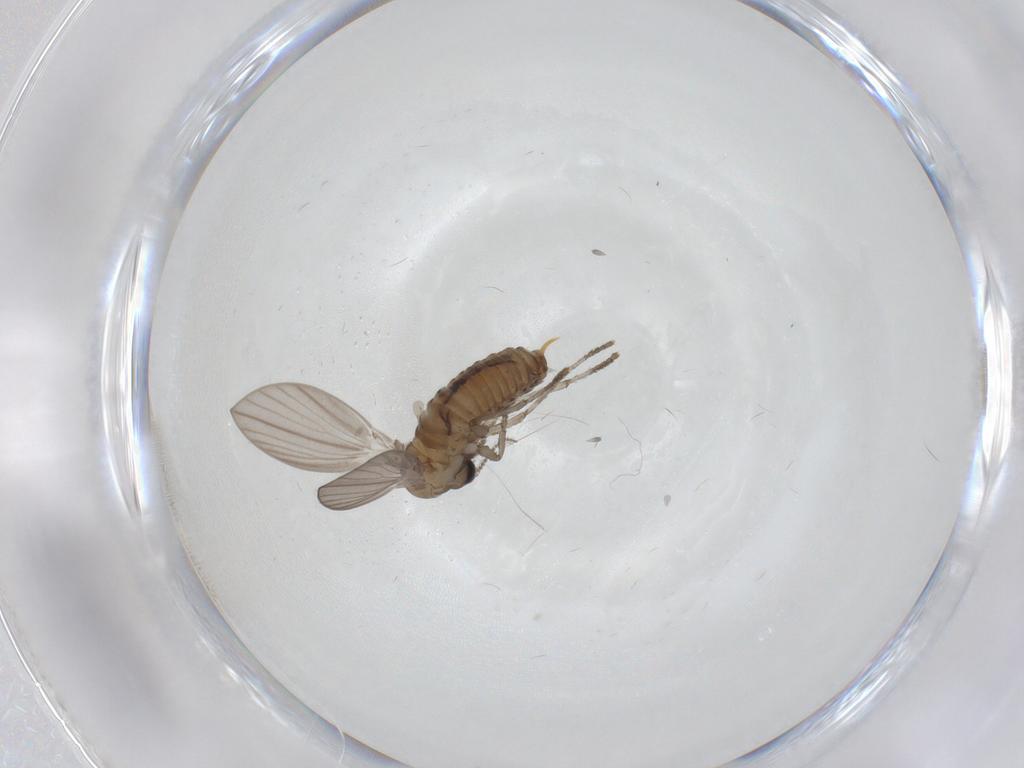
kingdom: Animalia
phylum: Arthropoda
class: Insecta
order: Diptera
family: Psychodidae
